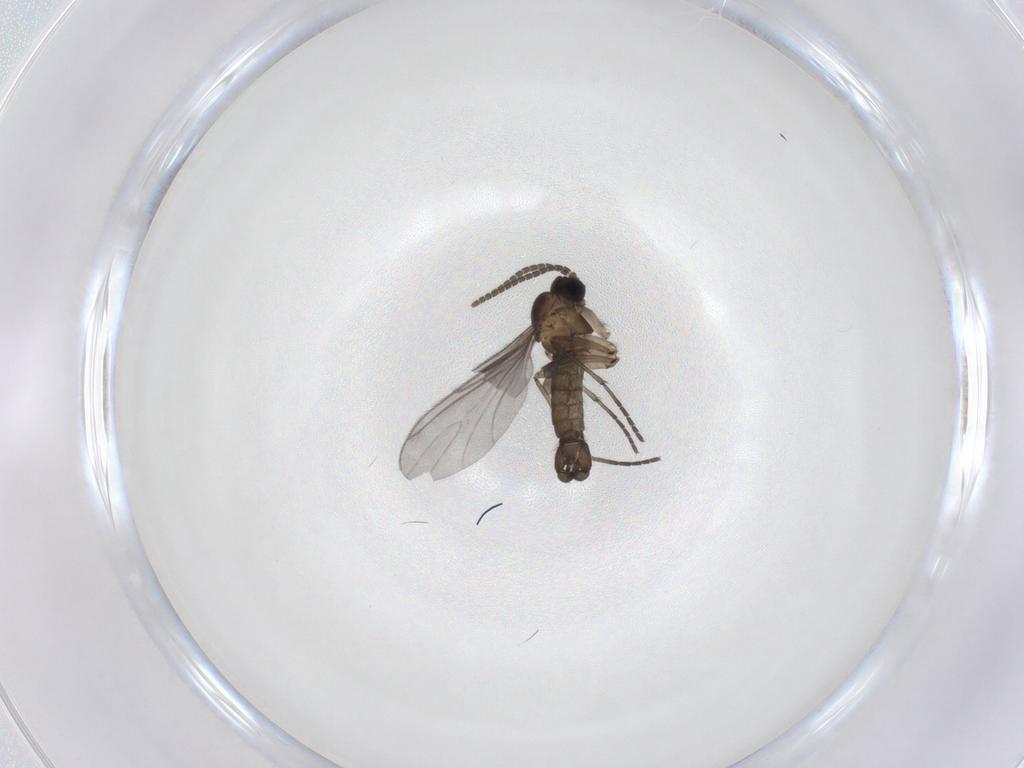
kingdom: Animalia
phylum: Arthropoda
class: Insecta
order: Diptera
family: Sciaridae
